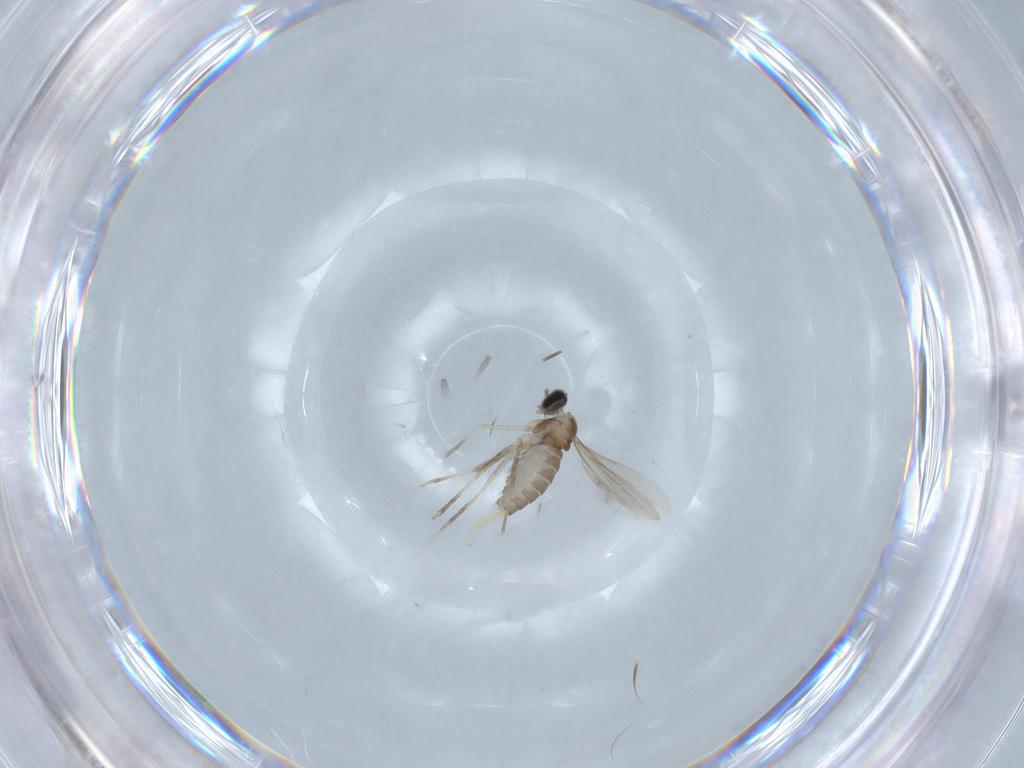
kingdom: Animalia
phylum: Arthropoda
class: Insecta
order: Diptera
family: Cecidomyiidae
